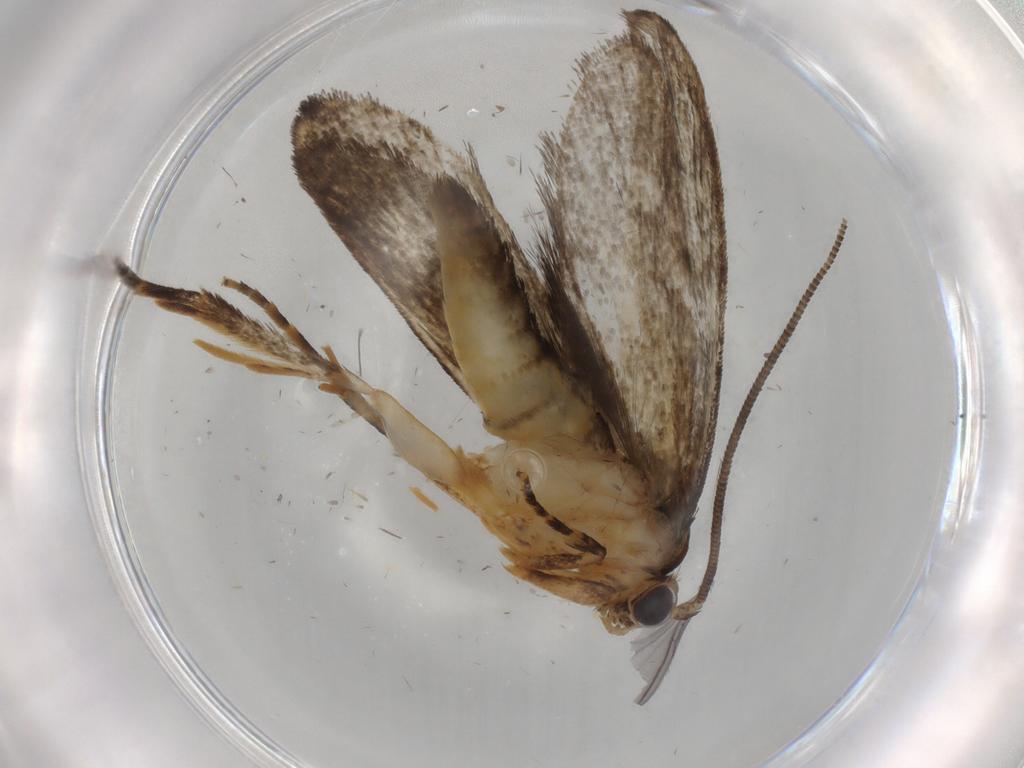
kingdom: Animalia
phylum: Arthropoda
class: Insecta
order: Lepidoptera
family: Tineidae
